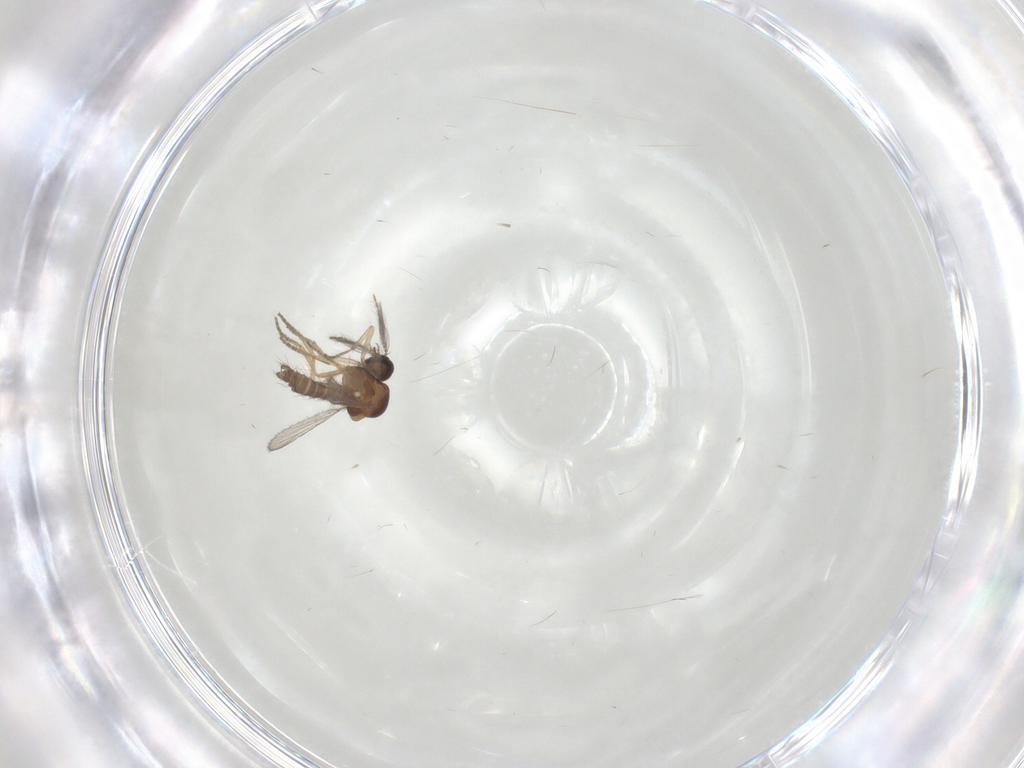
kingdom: Animalia
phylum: Arthropoda
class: Insecta
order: Diptera
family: Ceratopogonidae
